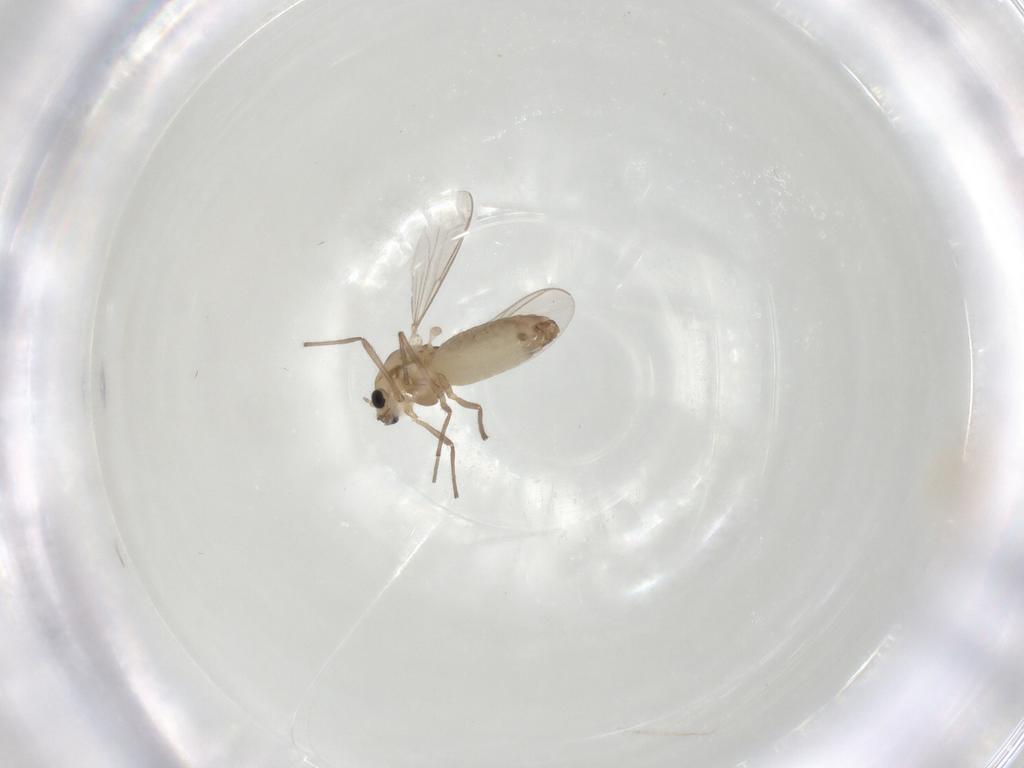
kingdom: Animalia
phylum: Arthropoda
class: Insecta
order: Diptera
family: Chironomidae
